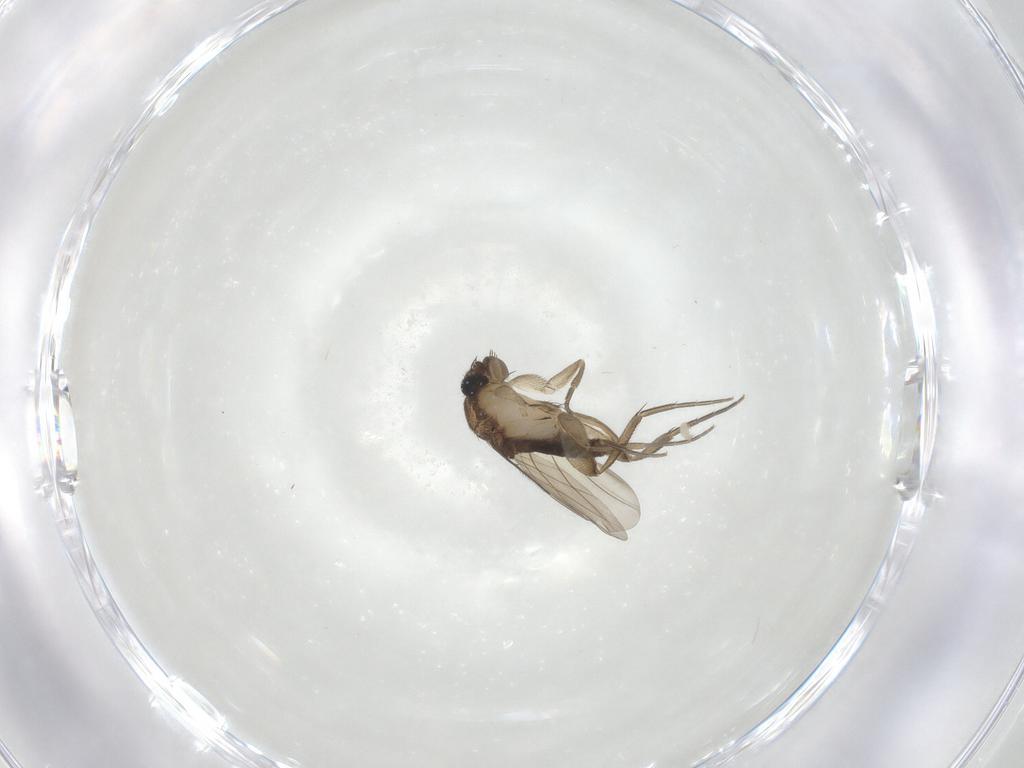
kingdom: Animalia
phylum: Arthropoda
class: Insecta
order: Diptera
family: Phoridae
